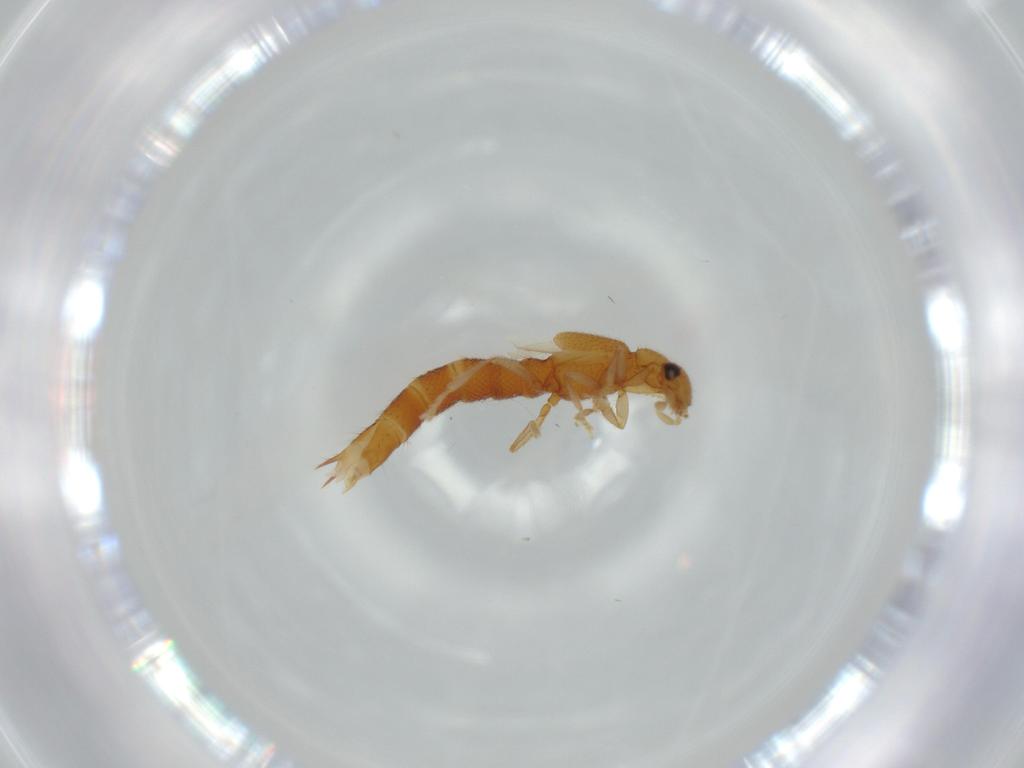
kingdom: Animalia
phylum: Arthropoda
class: Insecta
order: Coleoptera
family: Staphylinidae
